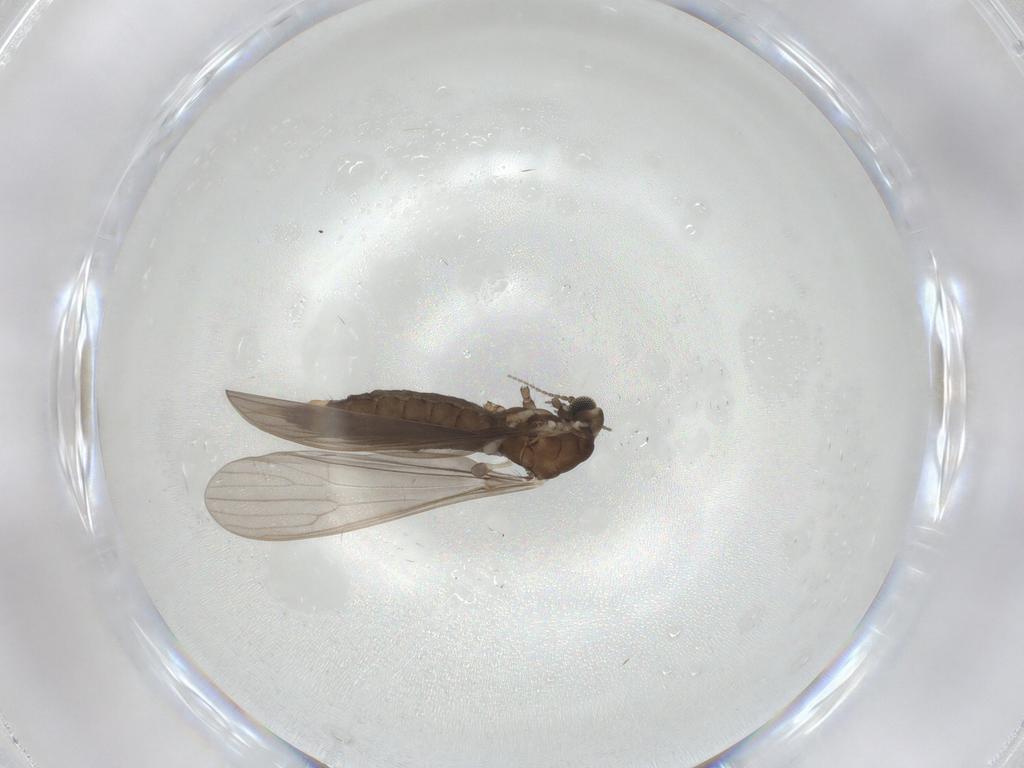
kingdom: Animalia
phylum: Arthropoda
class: Insecta
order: Diptera
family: Limoniidae
